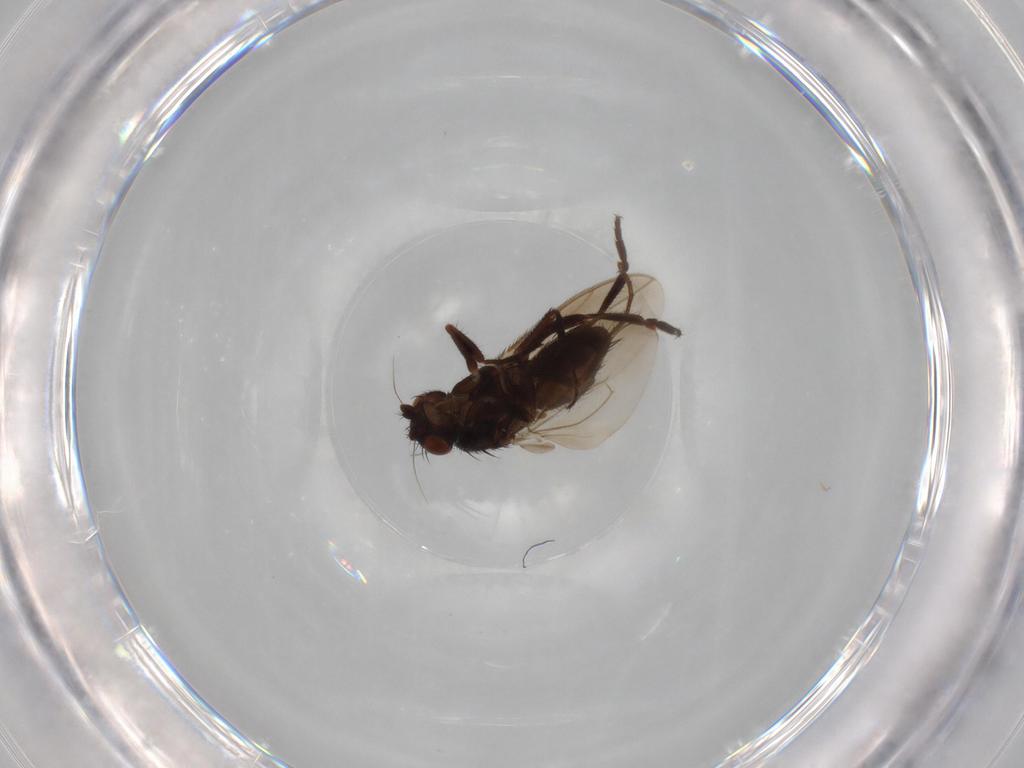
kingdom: Animalia
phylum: Arthropoda
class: Insecta
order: Diptera
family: Sphaeroceridae
